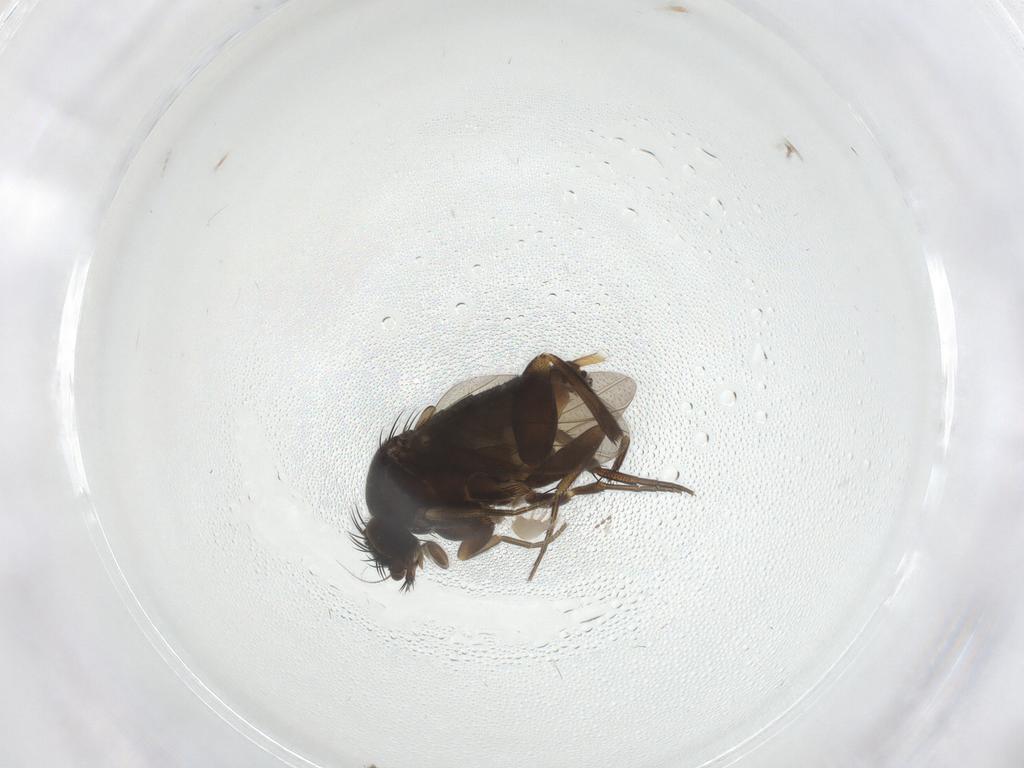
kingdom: Animalia
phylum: Arthropoda
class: Insecta
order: Diptera
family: Phoridae
